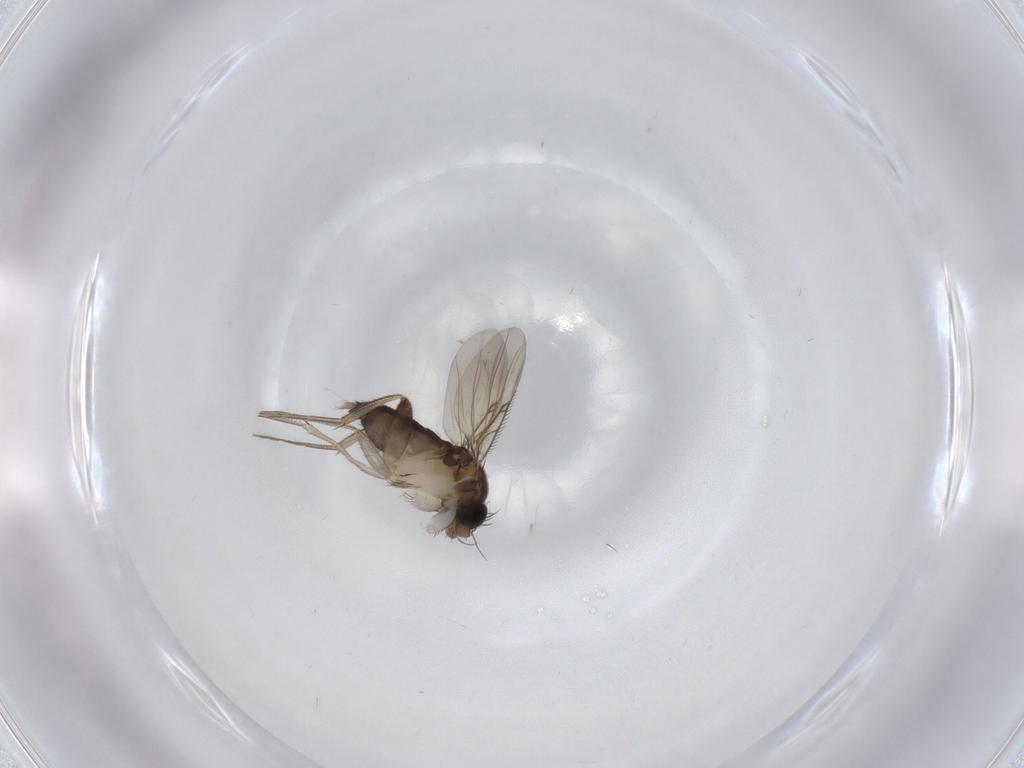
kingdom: Animalia
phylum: Arthropoda
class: Insecta
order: Diptera
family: Phoridae
